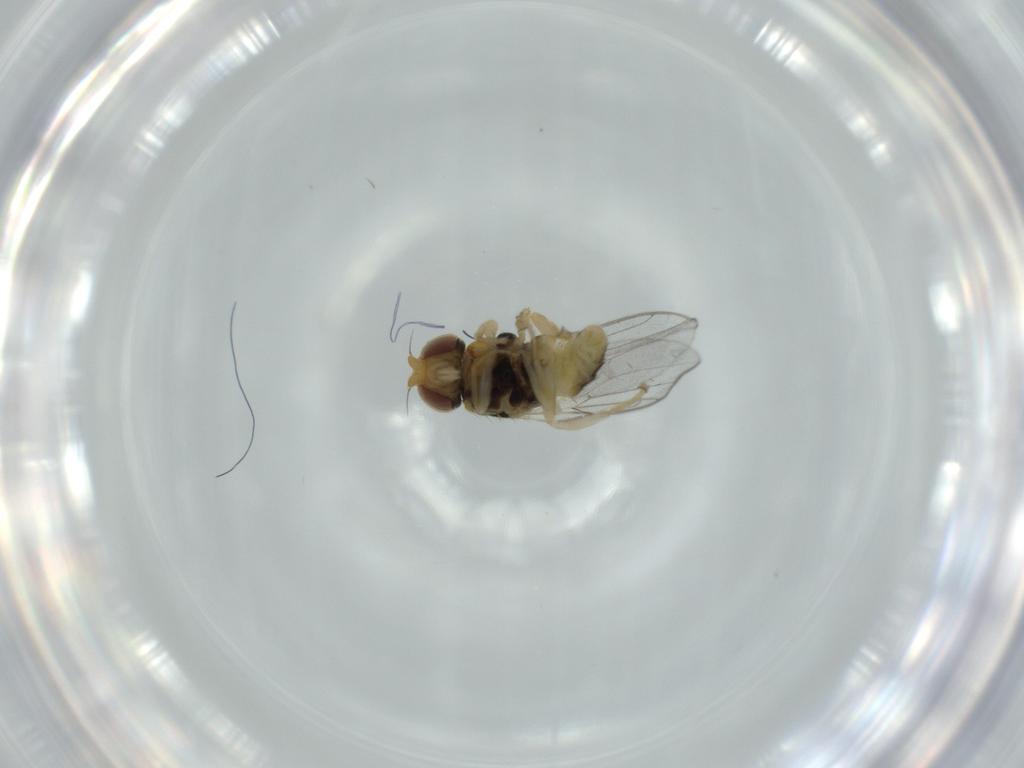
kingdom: Animalia
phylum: Arthropoda
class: Insecta
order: Diptera
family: Chloropidae
